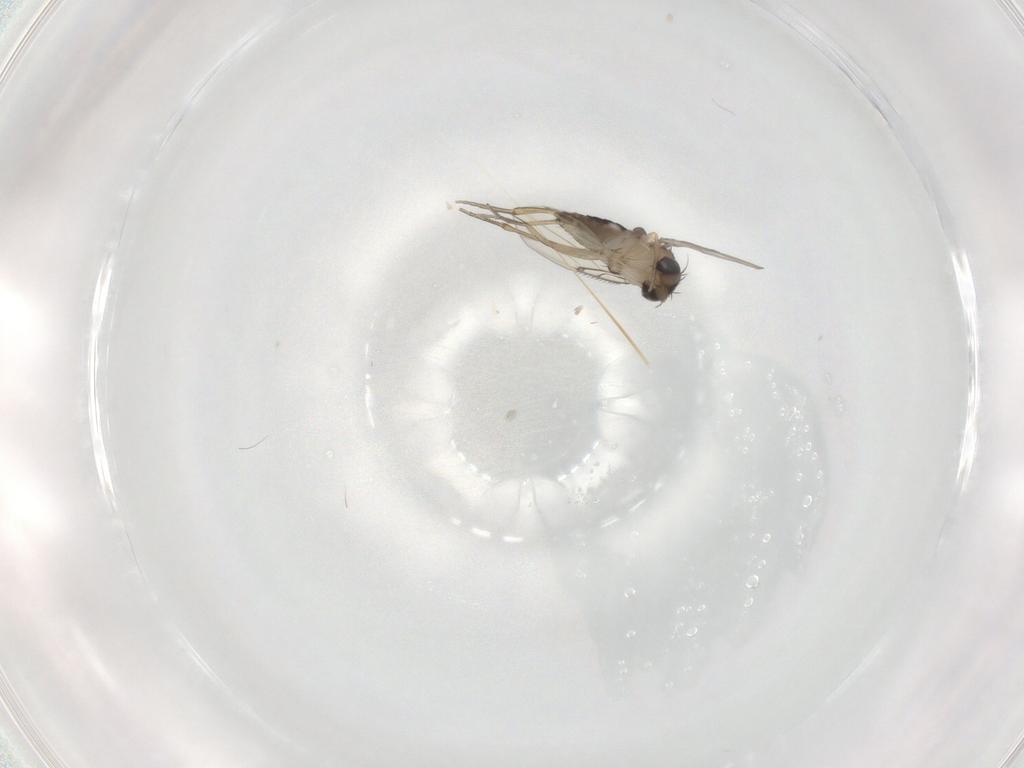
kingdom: Animalia
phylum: Arthropoda
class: Insecta
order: Diptera
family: Phoridae
